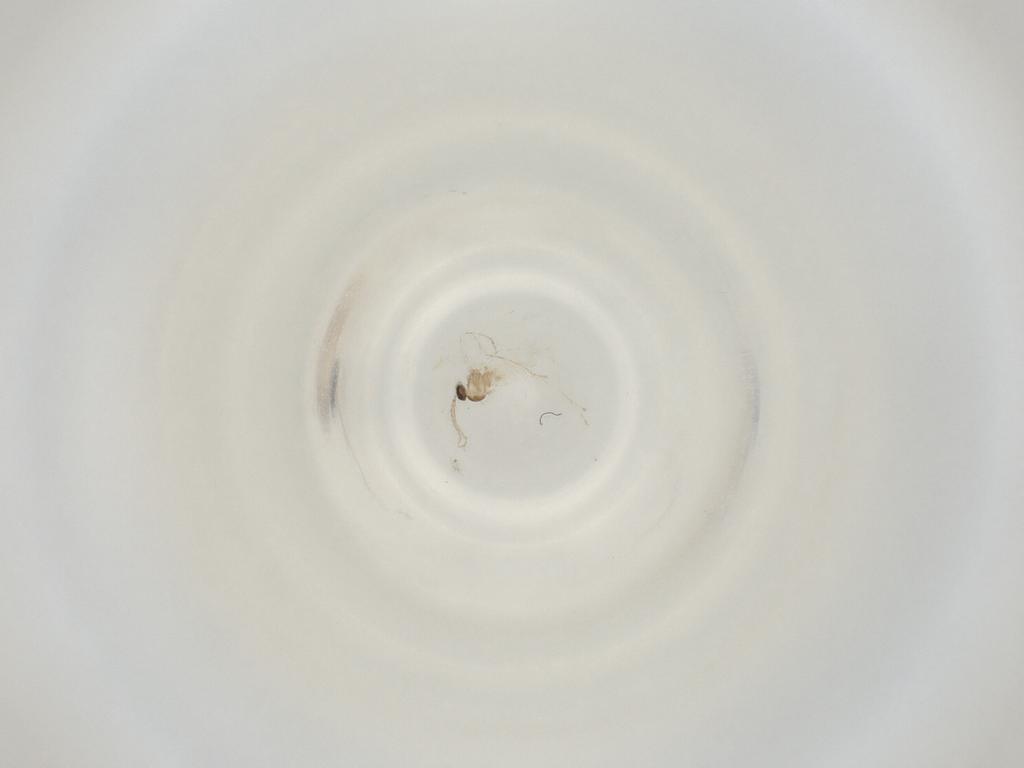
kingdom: Animalia
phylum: Arthropoda
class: Insecta
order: Diptera
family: Cecidomyiidae
